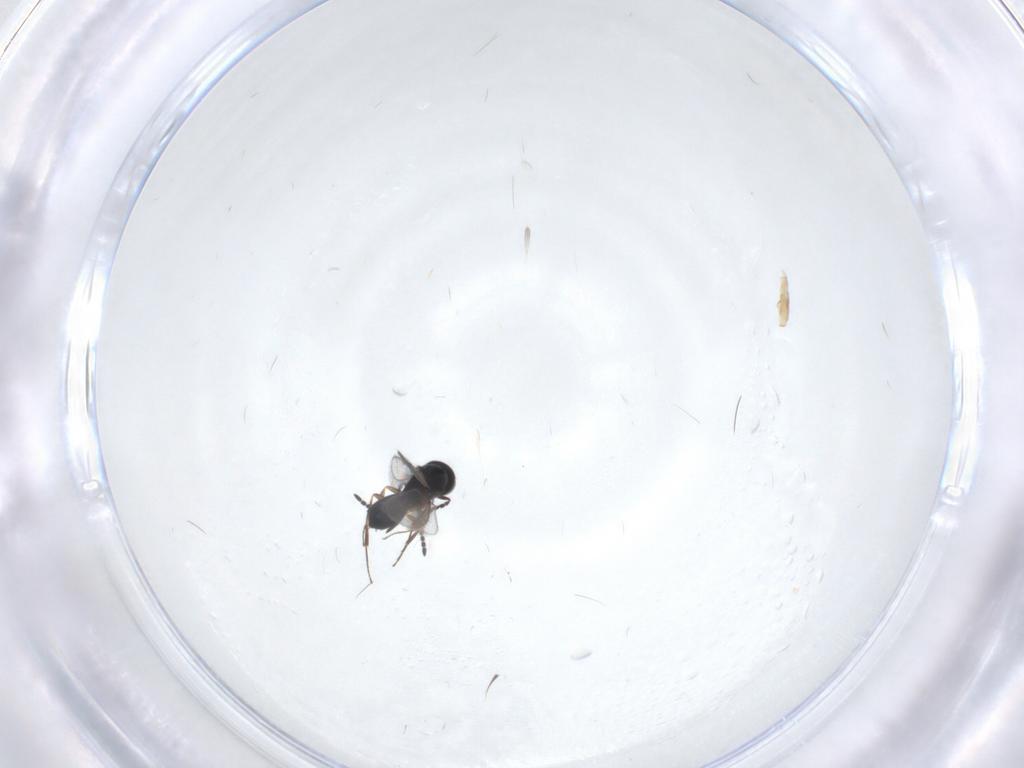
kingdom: Animalia
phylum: Arthropoda
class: Insecta
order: Hymenoptera
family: Scelionidae
